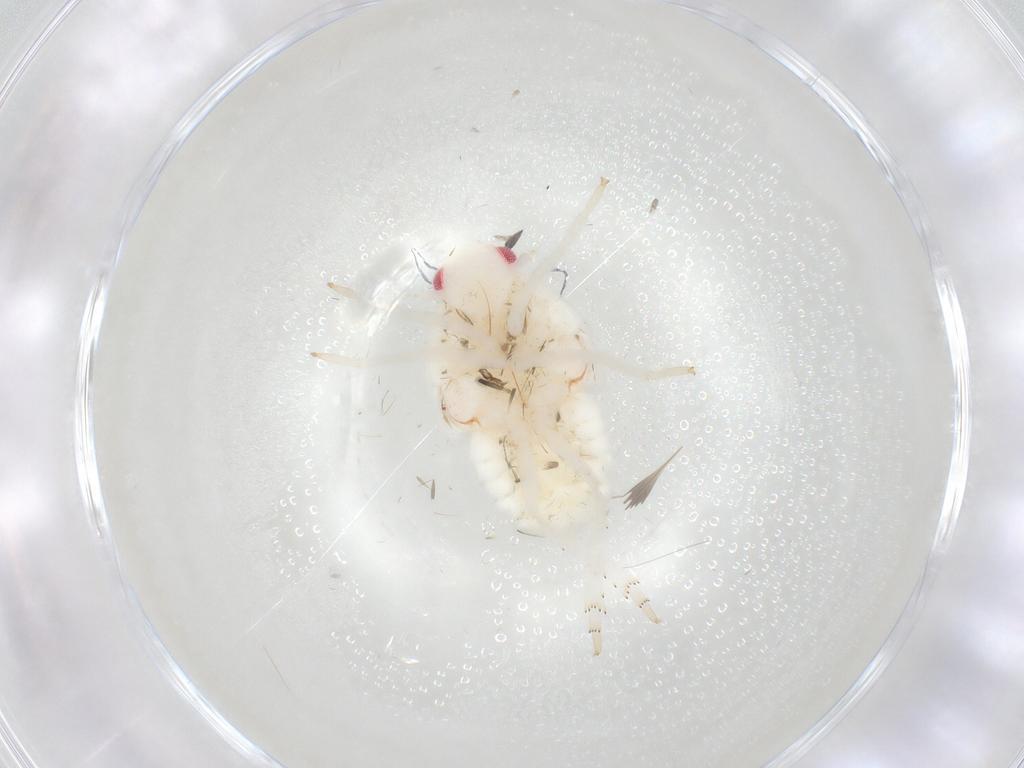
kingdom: Animalia
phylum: Arthropoda
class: Insecta
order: Hemiptera
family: Flatidae
